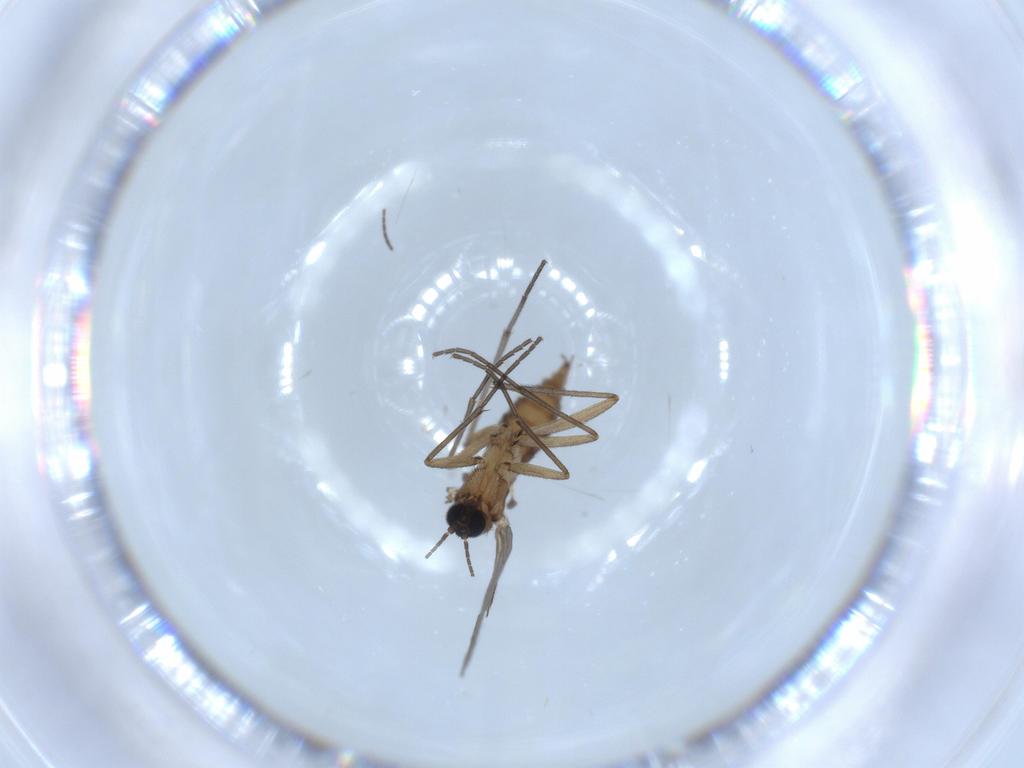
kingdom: Animalia
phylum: Arthropoda
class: Insecta
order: Diptera
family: Sciaridae
